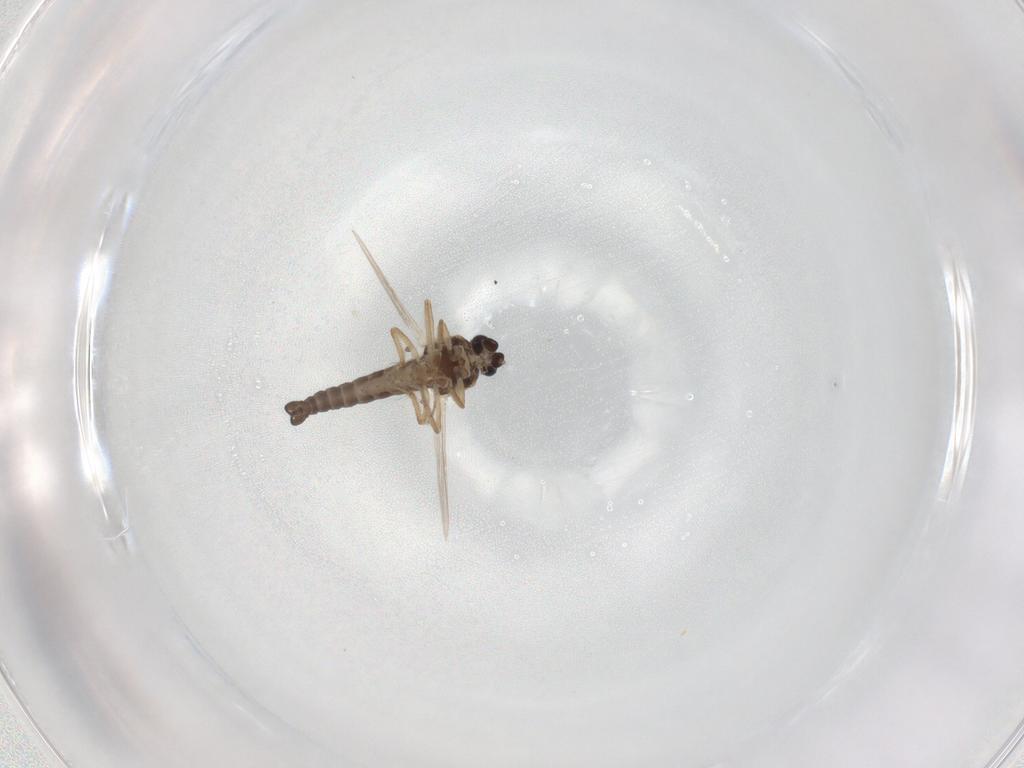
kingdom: Animalia
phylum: Arthropoda
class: Insecta
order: Diptera
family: Ceratopogonidae
